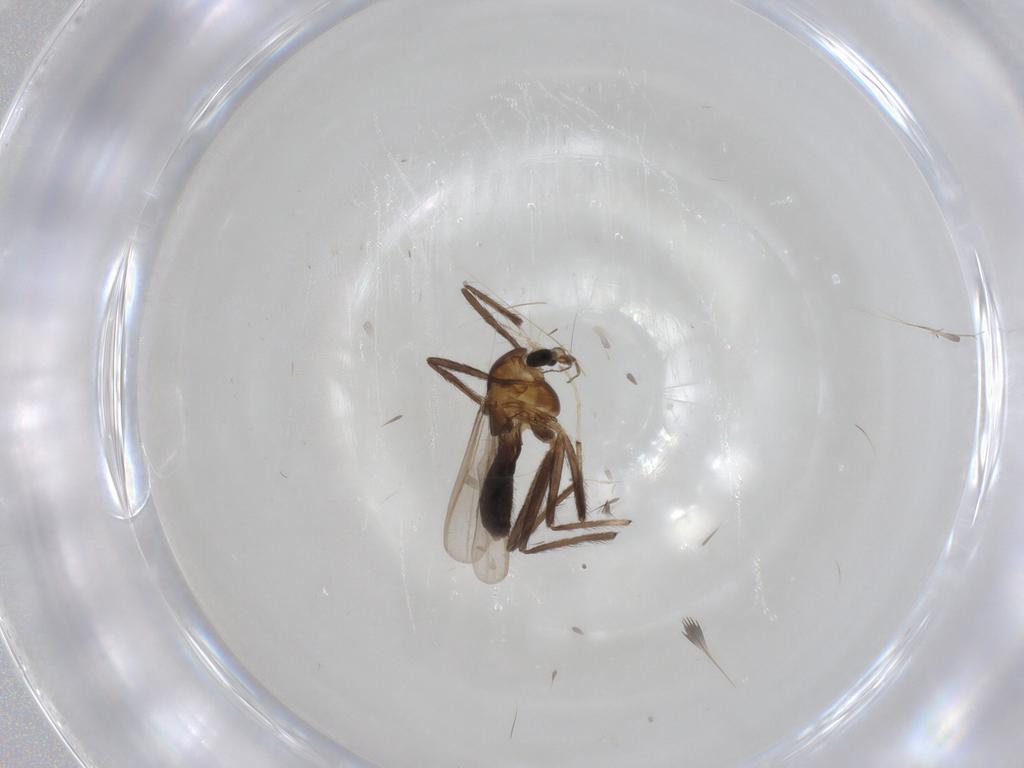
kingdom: Animalia
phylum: Arthropoda
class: Insecta
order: Diptera
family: Chironomidae
